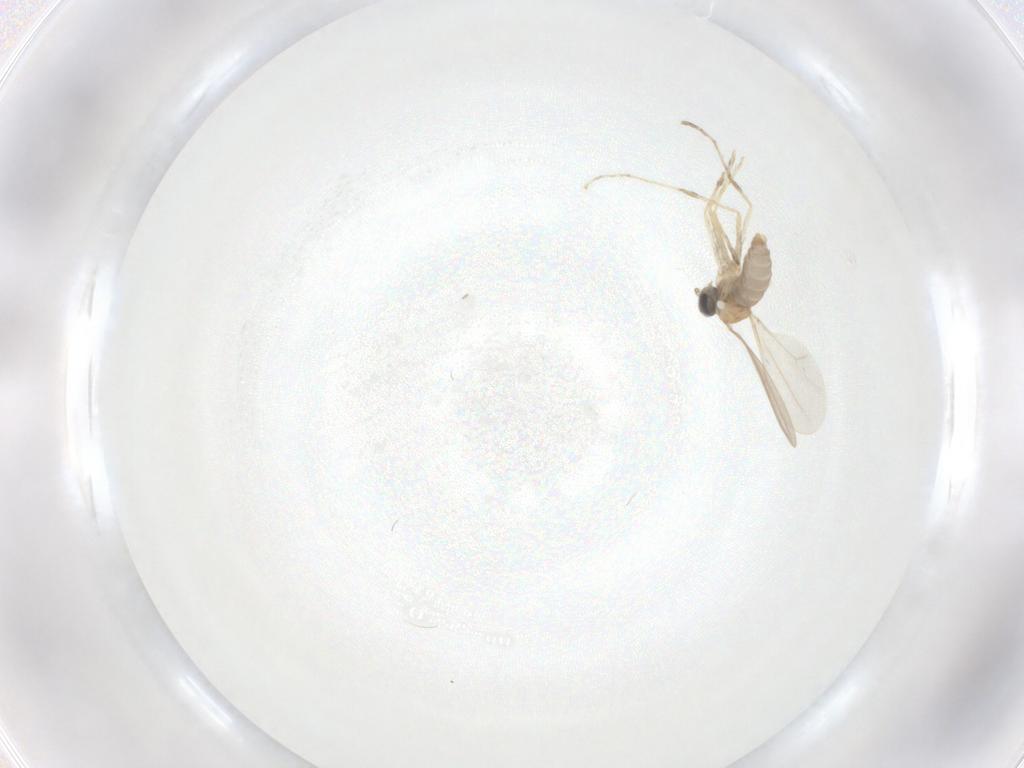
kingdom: Animalia
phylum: Arthropoda
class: Insecta
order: Diptera
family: Cecidomyiidae
